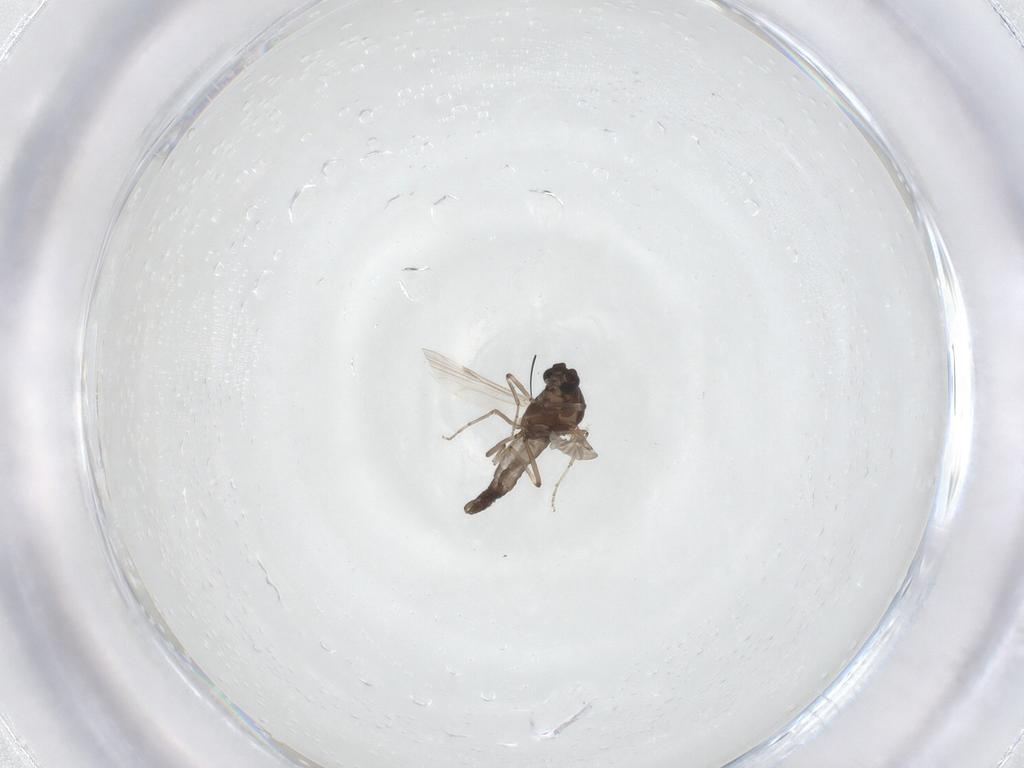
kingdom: Animalia
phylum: Arthropoda
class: Insecta
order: Diptera
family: Ceratopogonidae
